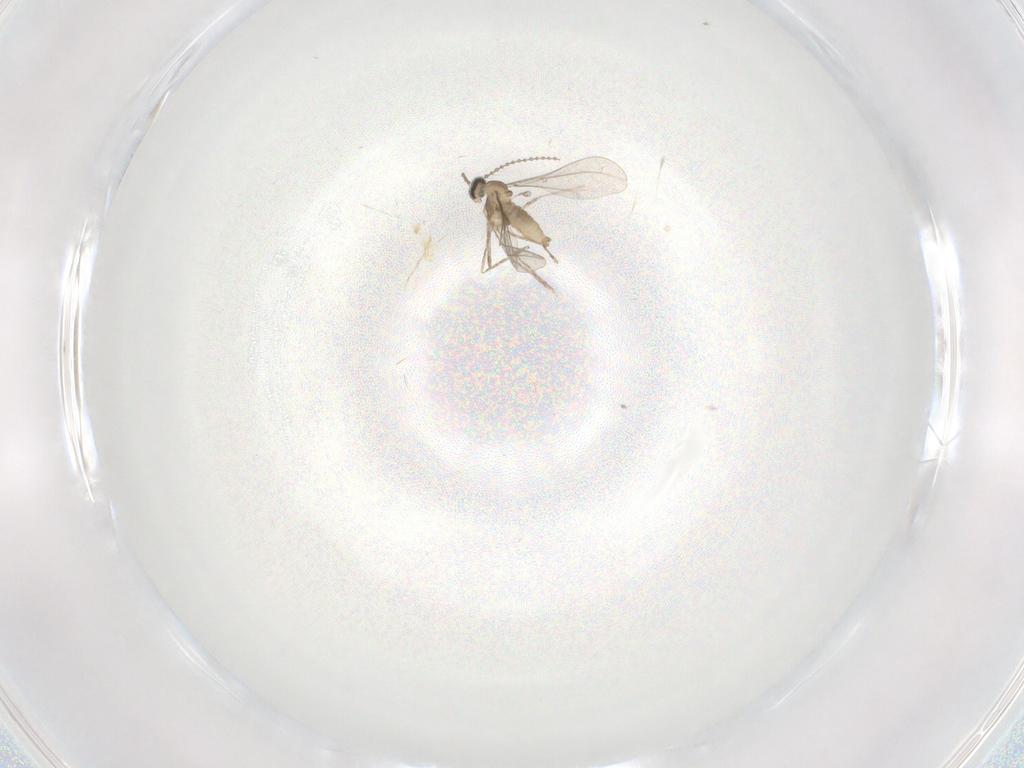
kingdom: Animalia
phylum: Arthropoda
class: Insecta
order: Diptera
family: Cecidomyiidae
